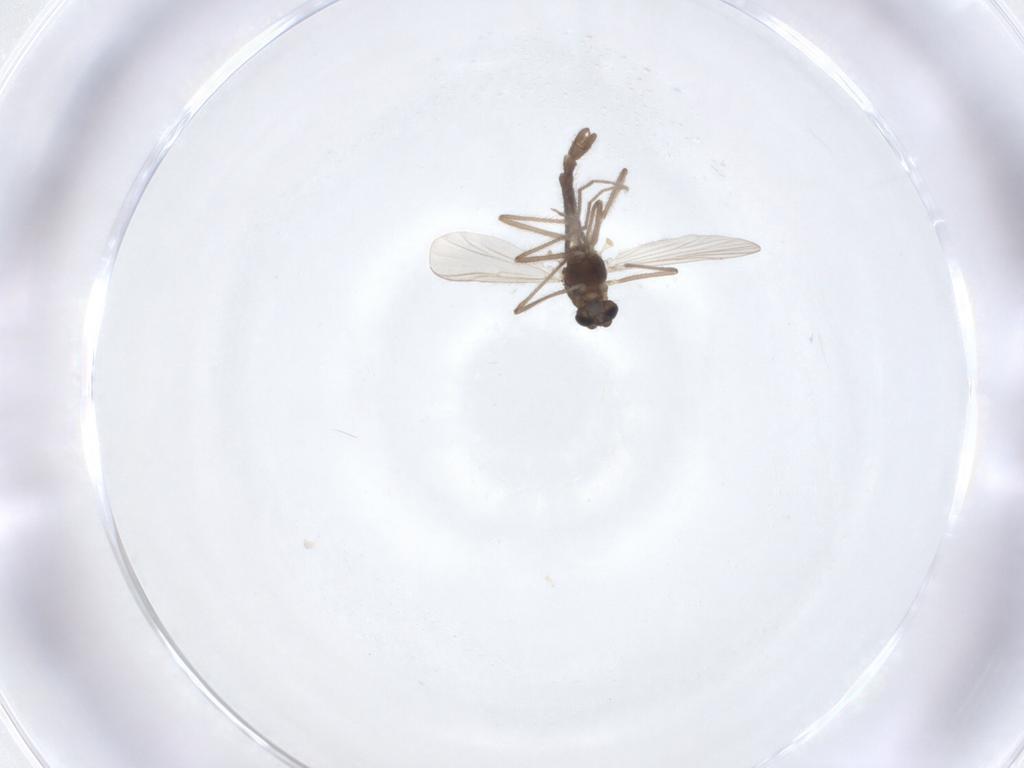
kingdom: Animalia
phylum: Arthropoda
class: Insecta
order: Diptera
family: Chironomidae
